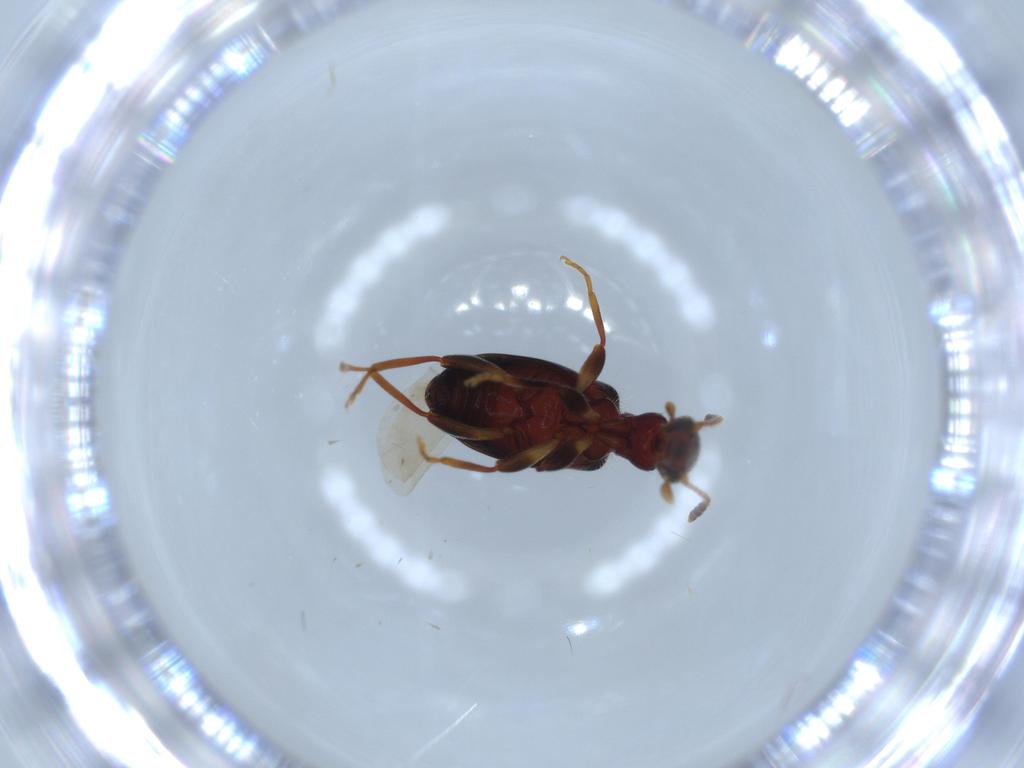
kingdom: Animalia
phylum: Arthropoda
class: Insecta
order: Coleoptera
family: Anthicidae
